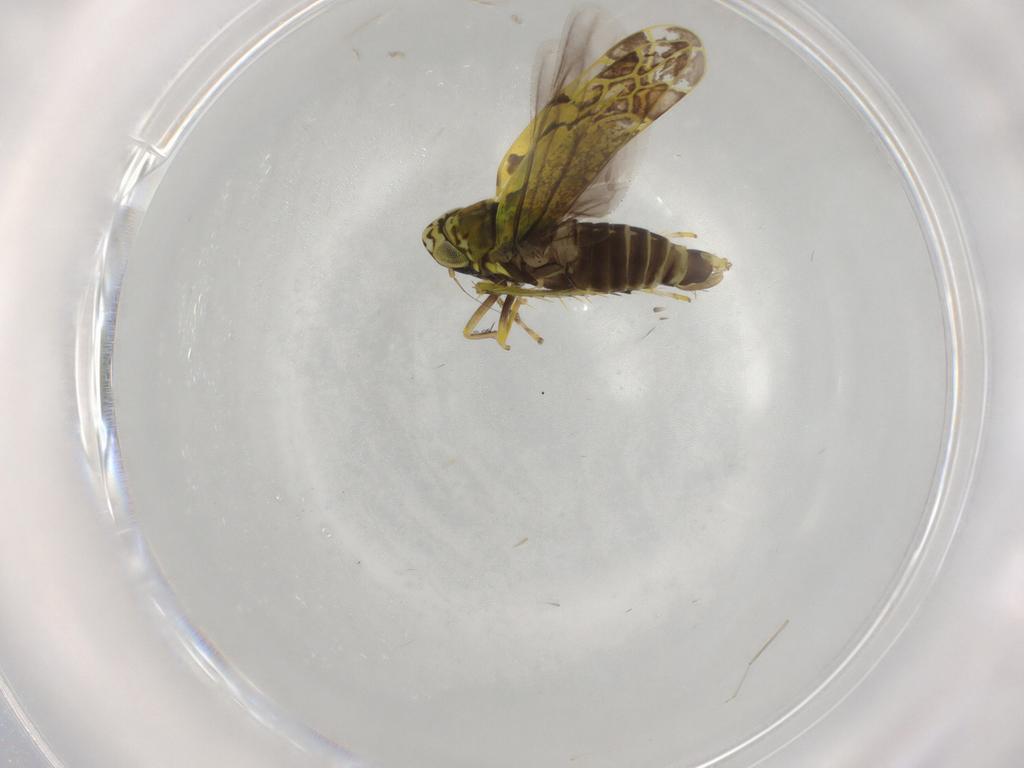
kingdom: Animalia
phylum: Arthropoda
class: Insecta
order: Hemiptera
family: Cicadellidae
